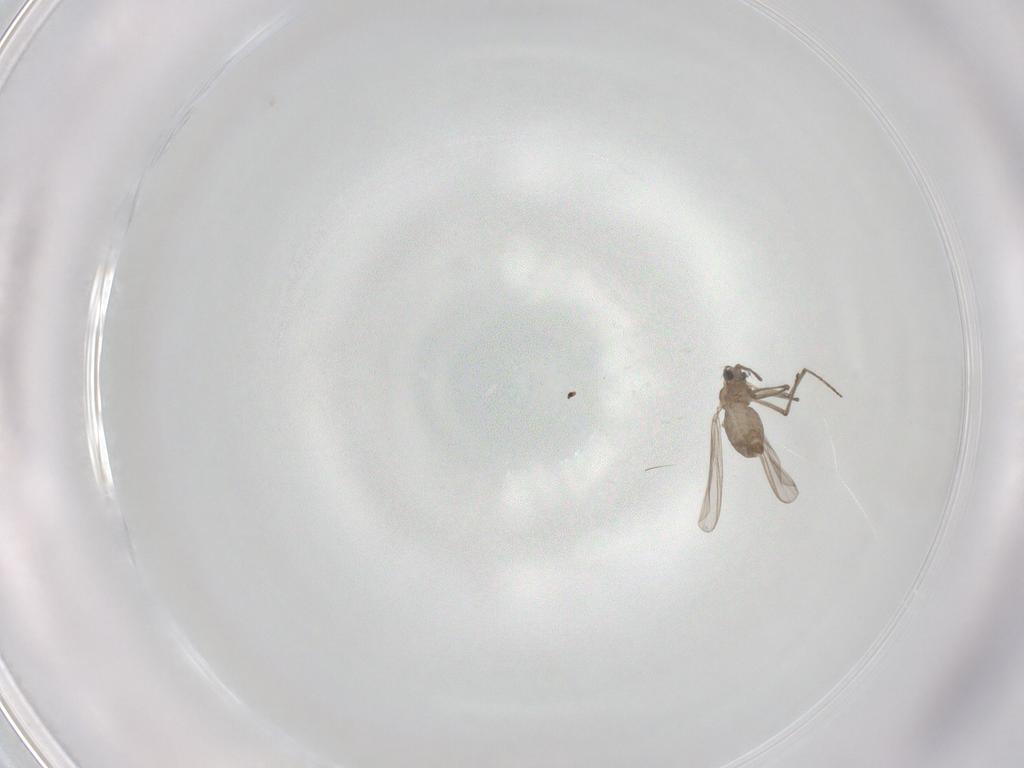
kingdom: Animalia
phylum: Arthropoda
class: Insecta
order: Diptera
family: Chironomidae
